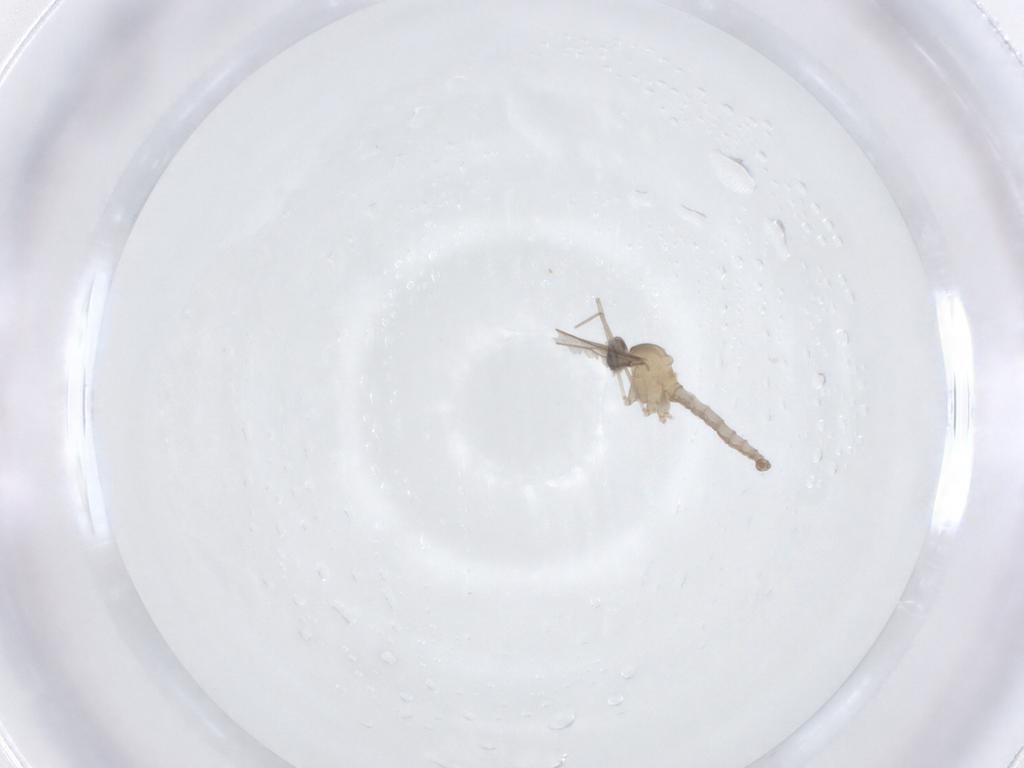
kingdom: Animalia
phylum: Arthropoda
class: Insecta
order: Diptera
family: Cecidomyiidae
